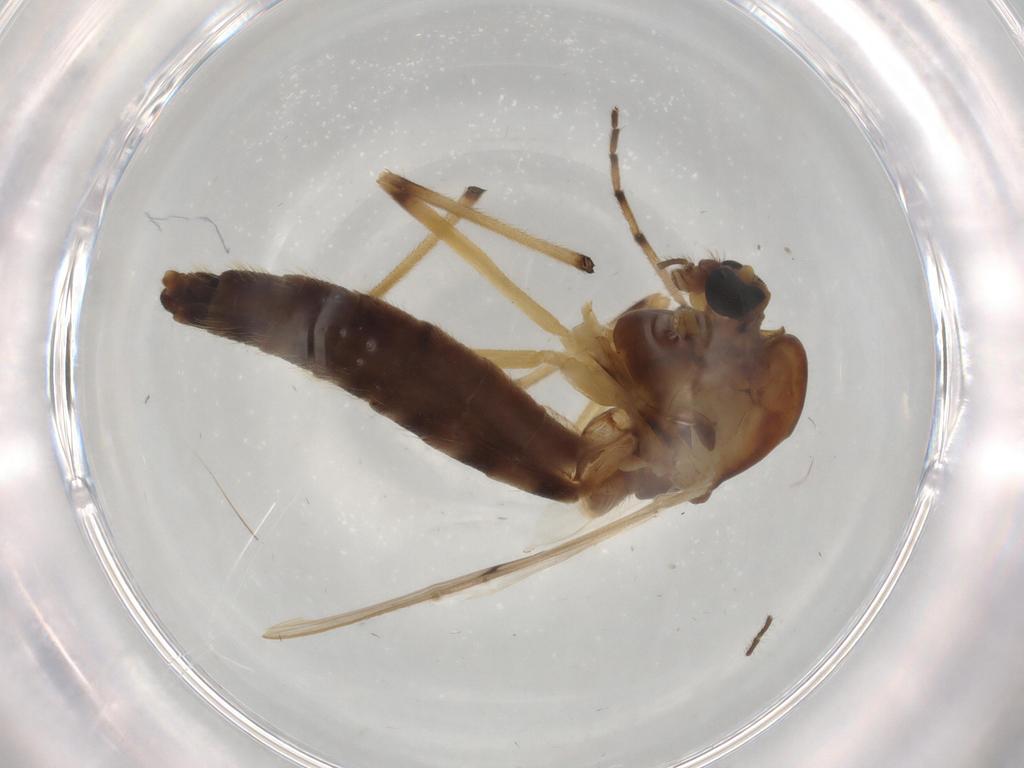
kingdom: Animalia
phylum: Arthropoda
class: Insecta
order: Diptera
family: Chironomidae
